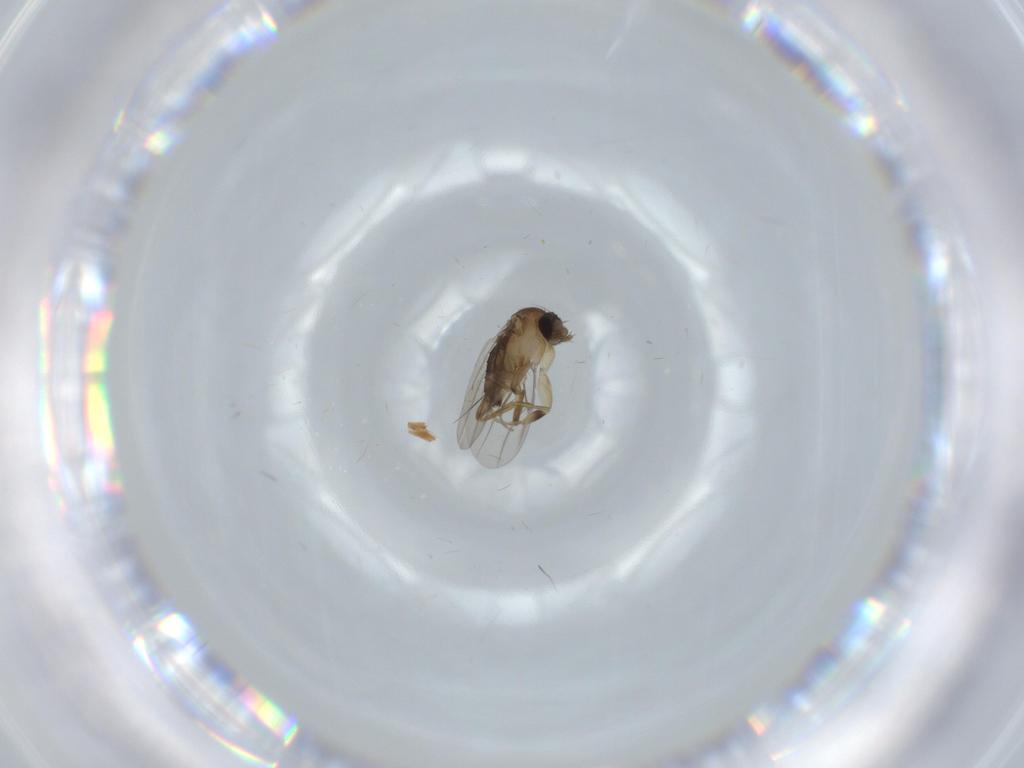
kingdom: Animalia
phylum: Arthropoda
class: Insecta
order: Diptera
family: Phoridae
